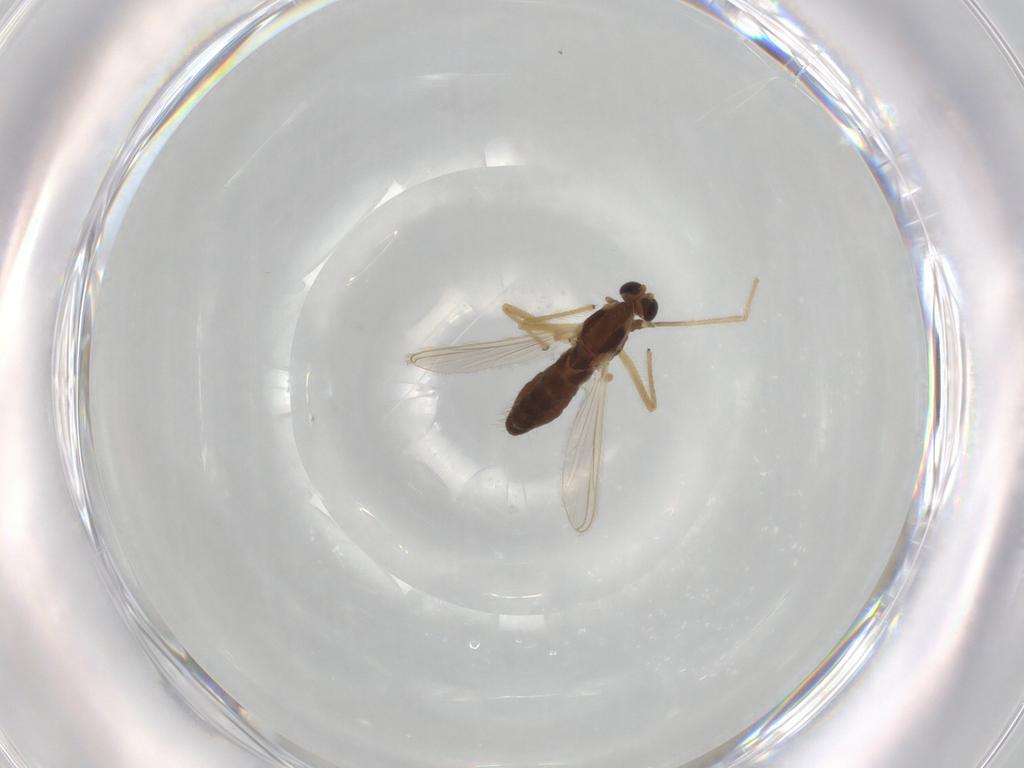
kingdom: Animalia
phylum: Arthropoda
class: Insecta
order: Diptera
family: Chironomidae
